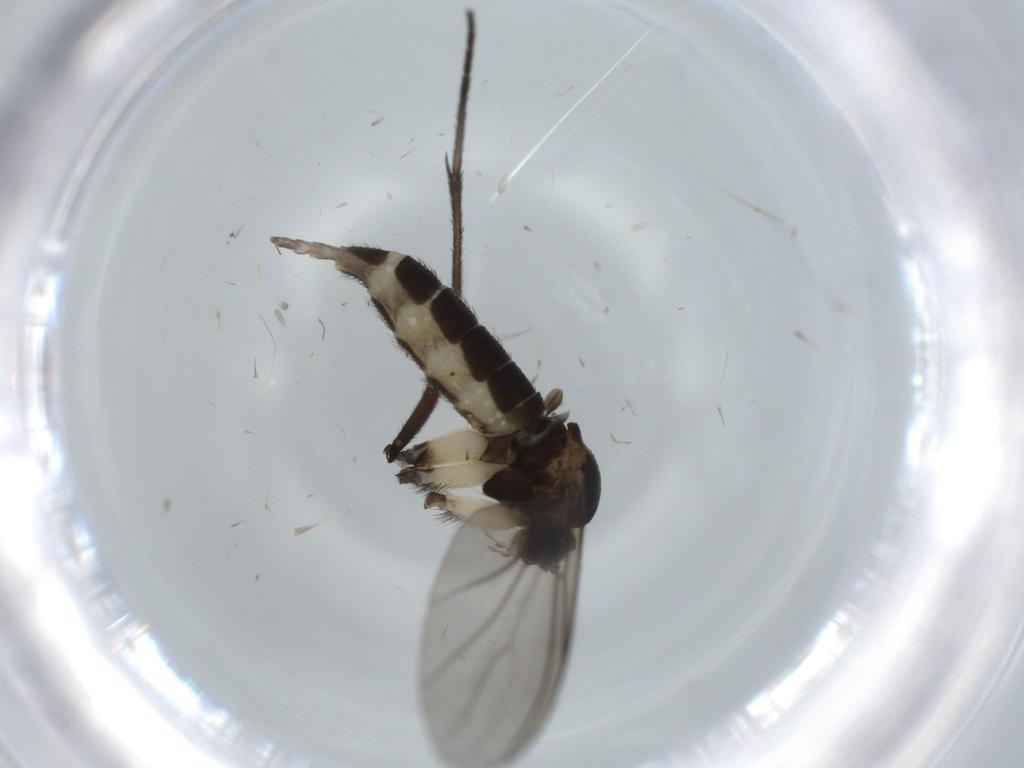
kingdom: Animalia
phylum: Arthropoda
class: Insecta
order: Diptera
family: Sciaridae
